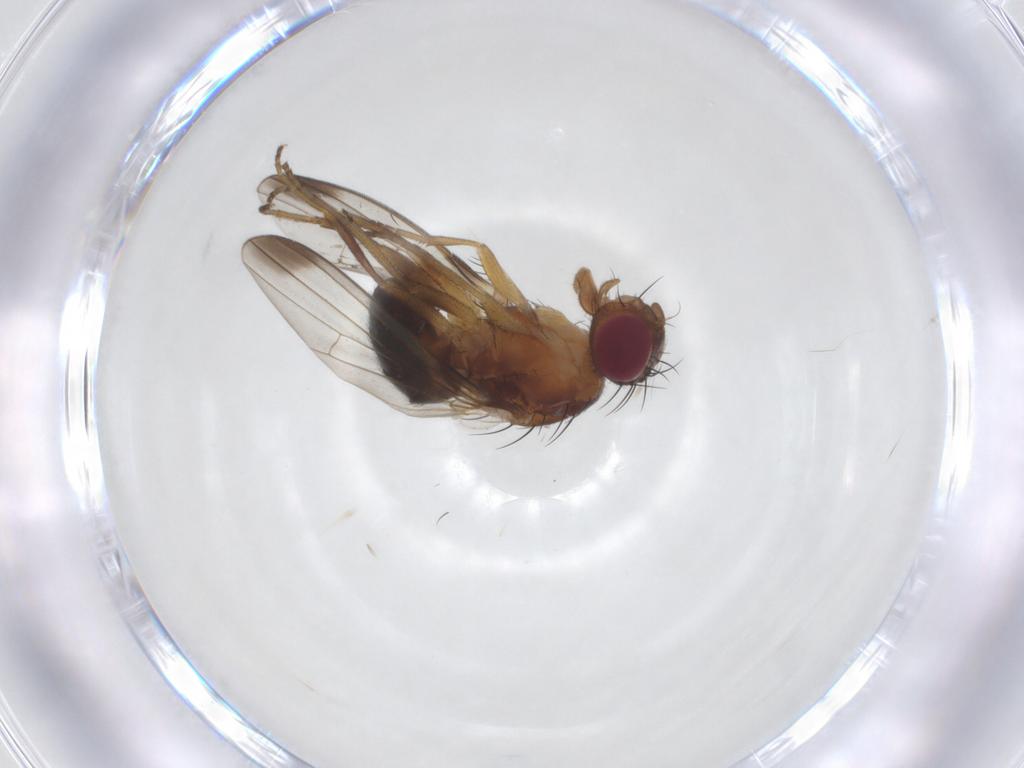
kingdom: Animalia
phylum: Arthropoda
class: Insecta
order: Diptera
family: Piophilidae
